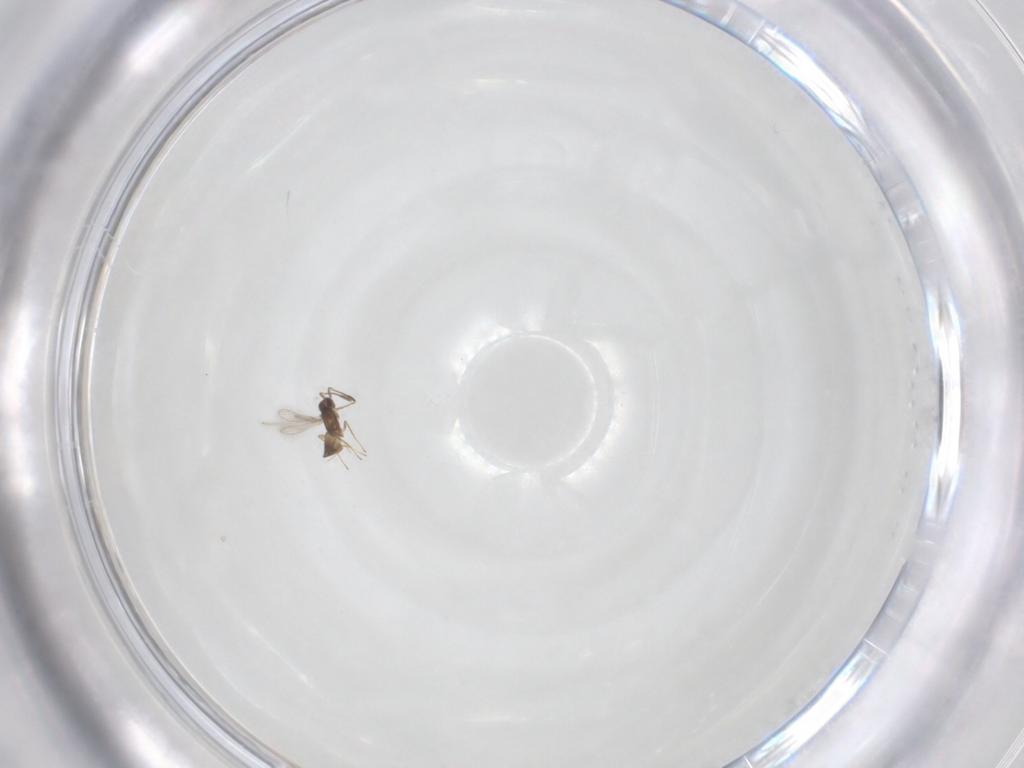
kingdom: Animalia
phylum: Arthropoda
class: Insecta
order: Hymenoptera
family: Mymaridae
